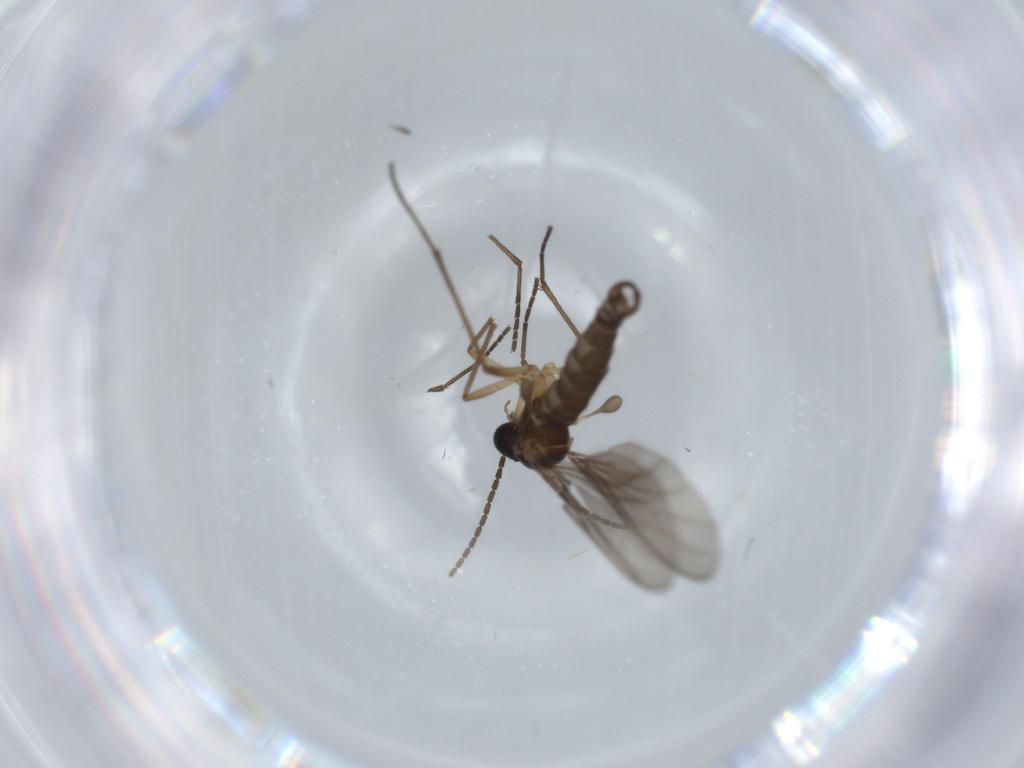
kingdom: Animalia
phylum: Arthropoda
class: Insecta
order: Diptera
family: Sciaridae
